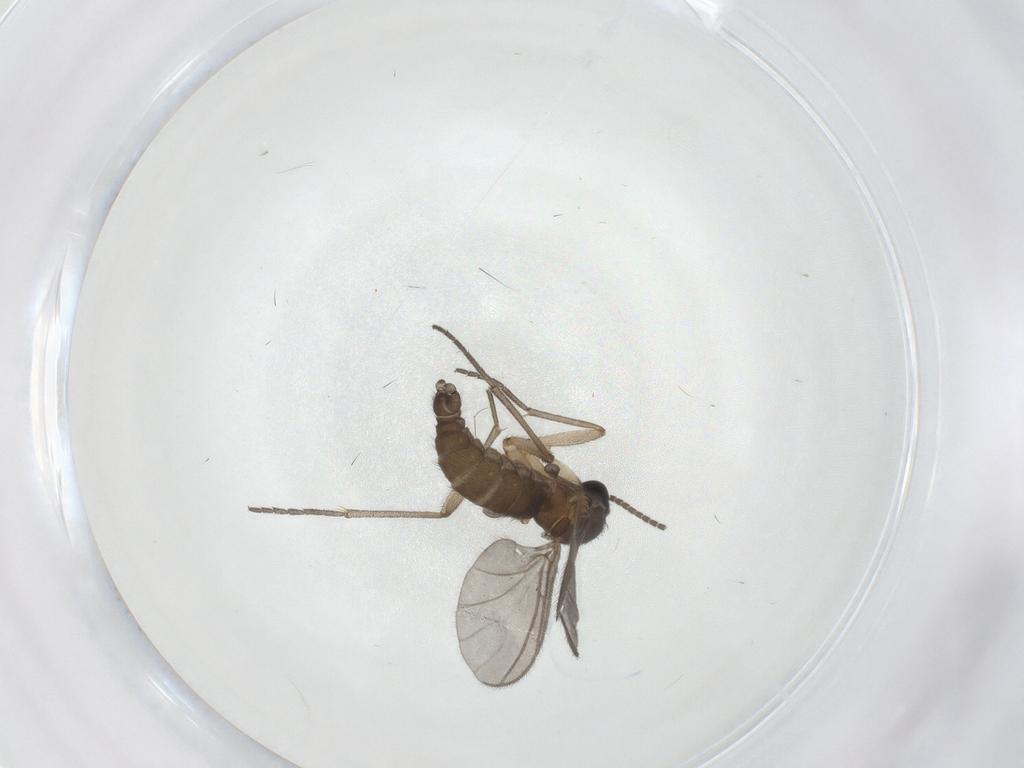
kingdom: Animalia
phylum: Arthropoda
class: Insecta
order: Diptera
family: Sciaridae
